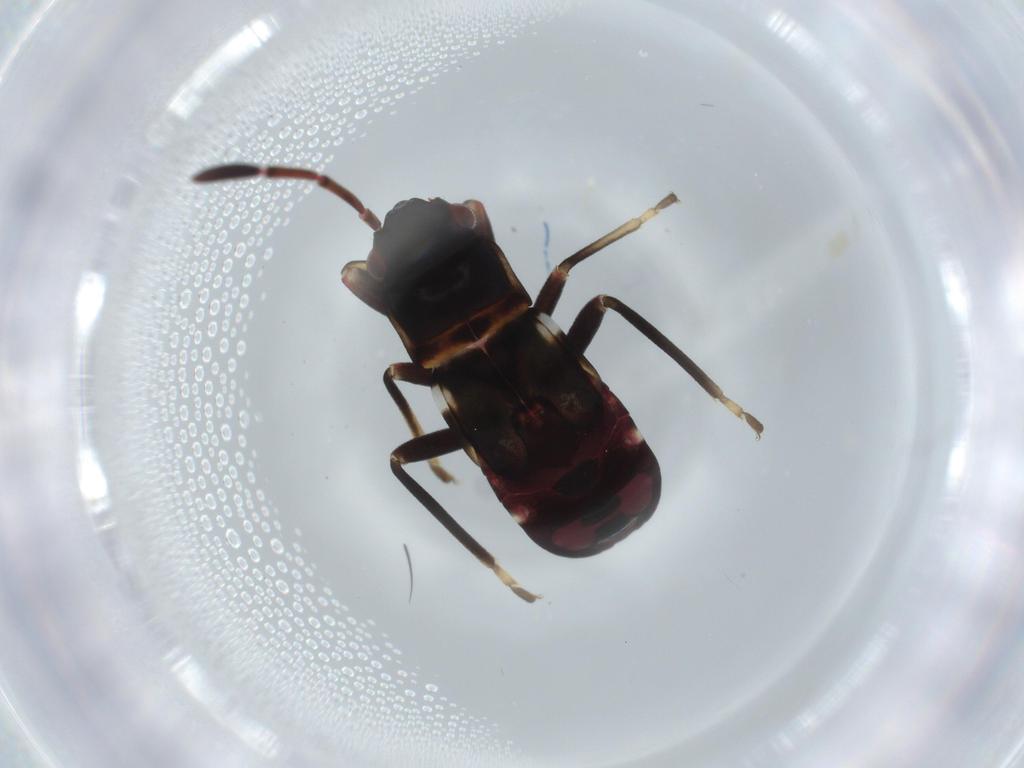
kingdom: Animalia
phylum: Arthropoda
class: Insecta
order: Hemiptera
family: Rhyparochromidae
